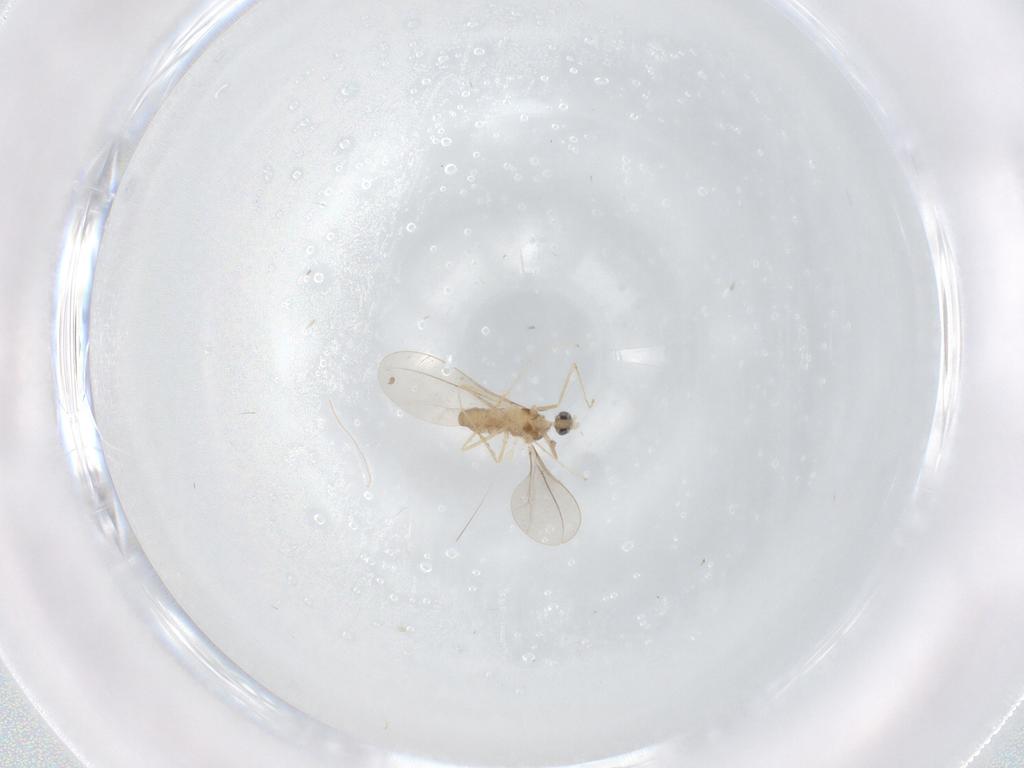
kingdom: Animalia
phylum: Arthropoda
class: Insecta
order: Diptera
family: Cecidomyiidae
